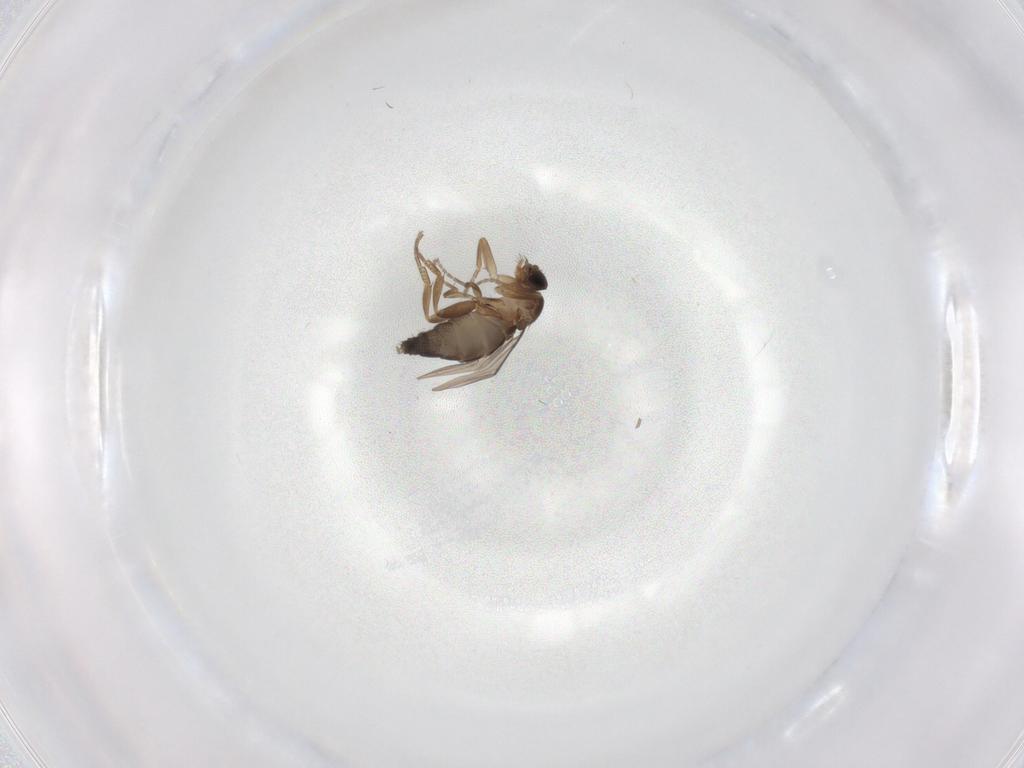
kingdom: Animalia
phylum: Arthropoda
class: Insecta
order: Diptera
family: Phoridae
